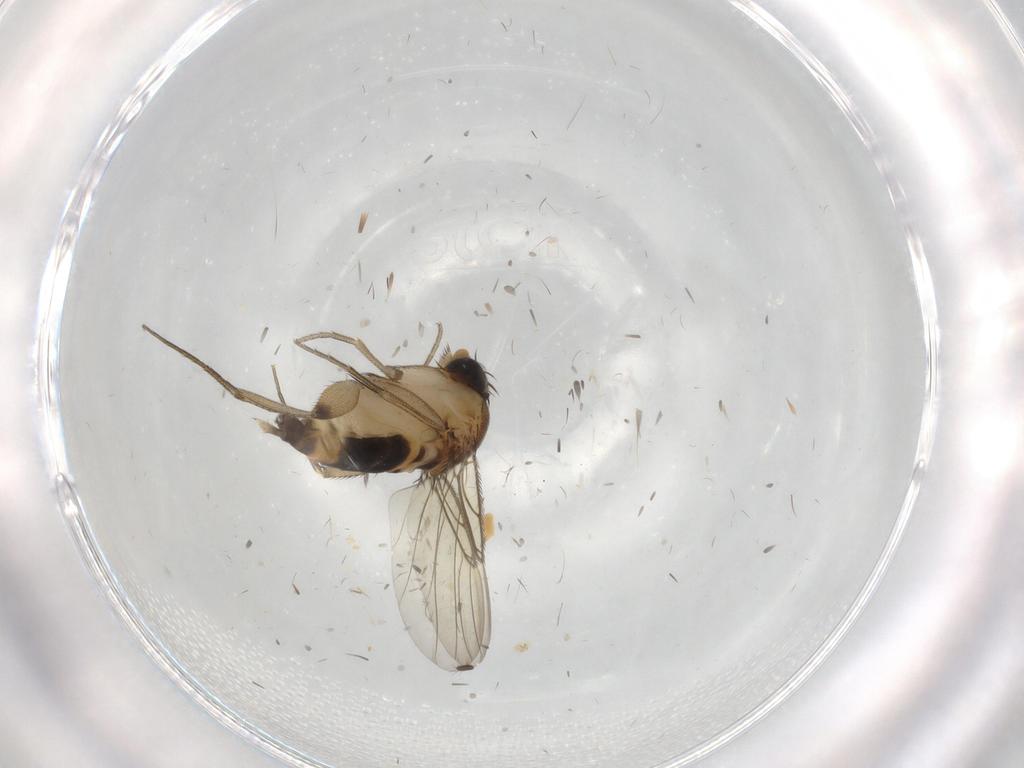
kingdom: Animalia
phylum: Arthropoda
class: Insecta
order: Diptera
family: Phoridae
